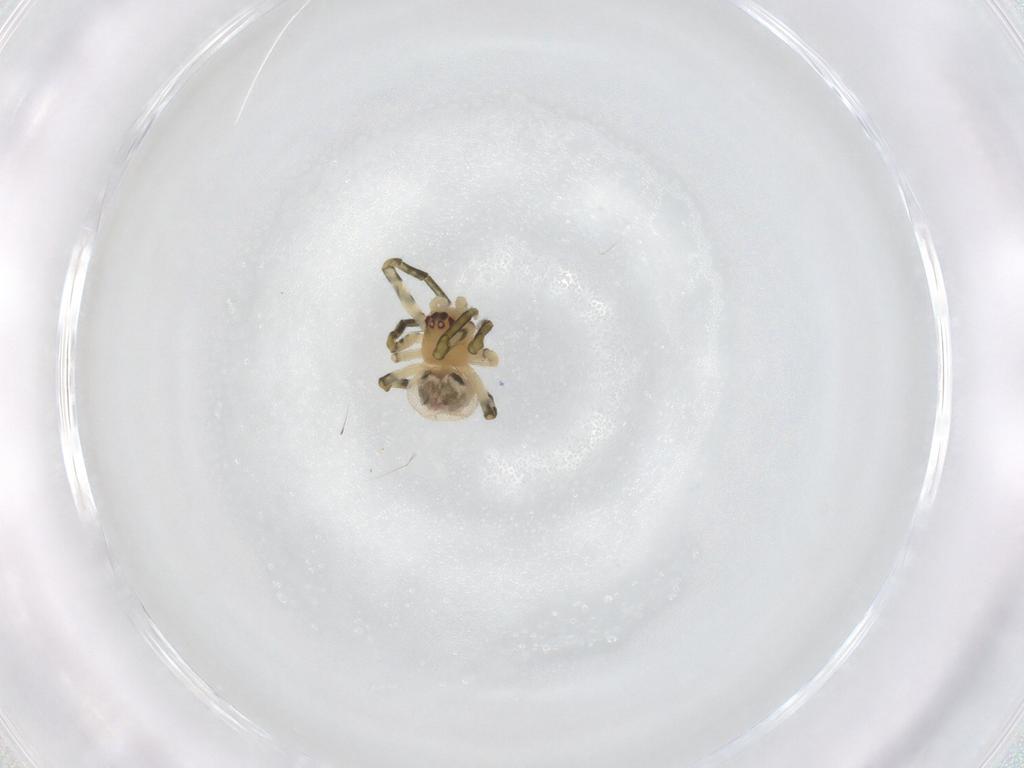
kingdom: Animalia
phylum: Arthropoda
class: Arachnida
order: Araneae
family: Theridiidae
